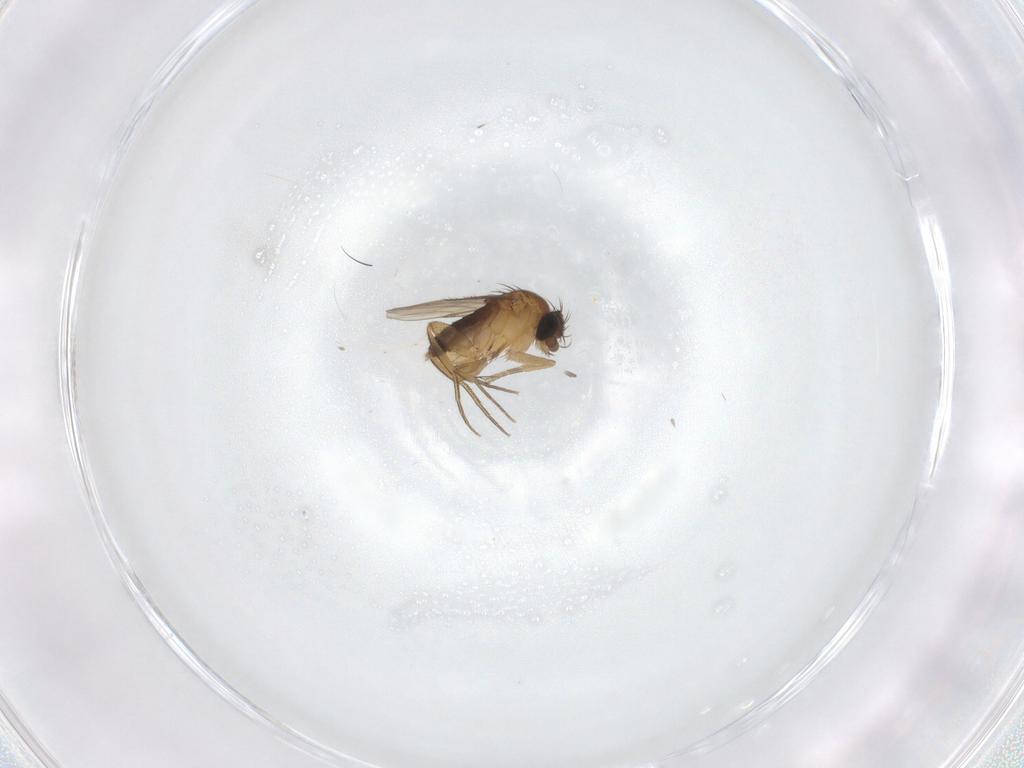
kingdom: Animalia
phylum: Arthropoda
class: Insecta
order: Diptera
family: Phoridae
